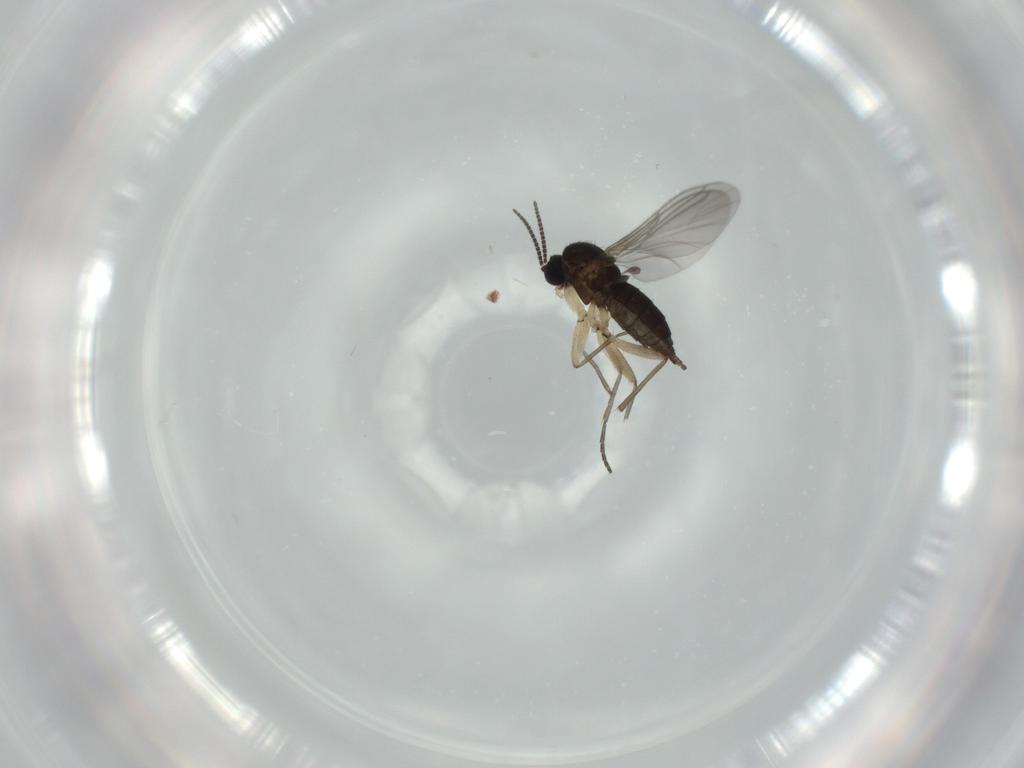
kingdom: Animalia
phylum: Arthropoda
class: Insecta
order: Diptera
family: Sciaridae
